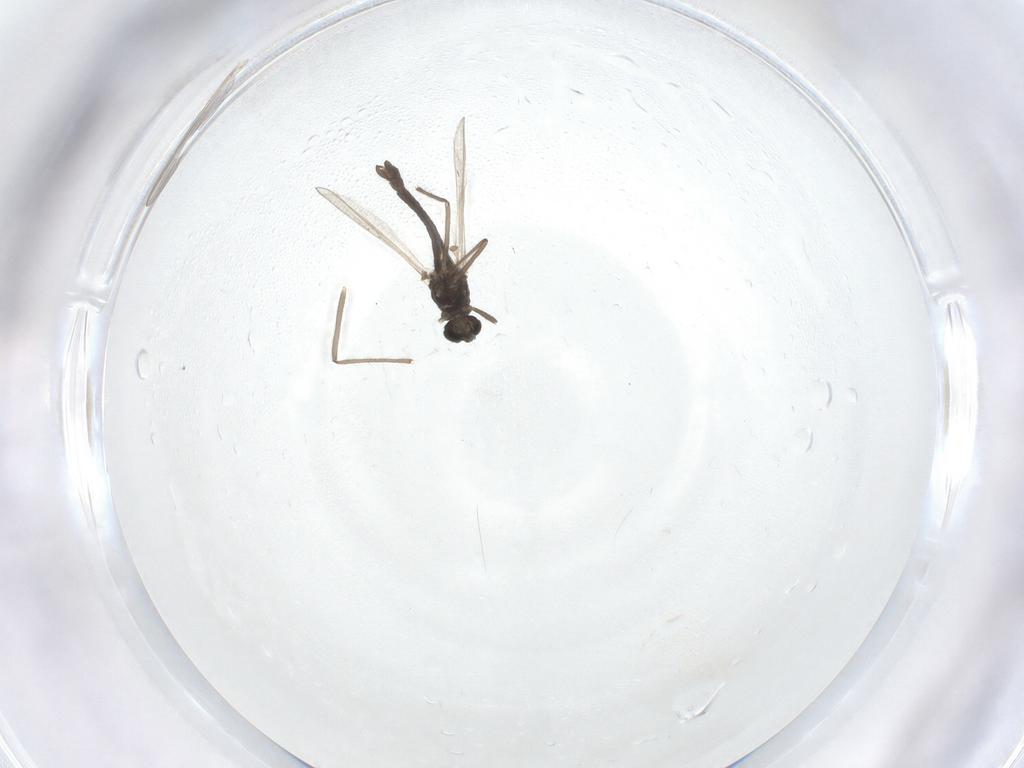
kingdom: Animalia
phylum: Arthropoda
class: Insecta
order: Diptera
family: Chironomidae
